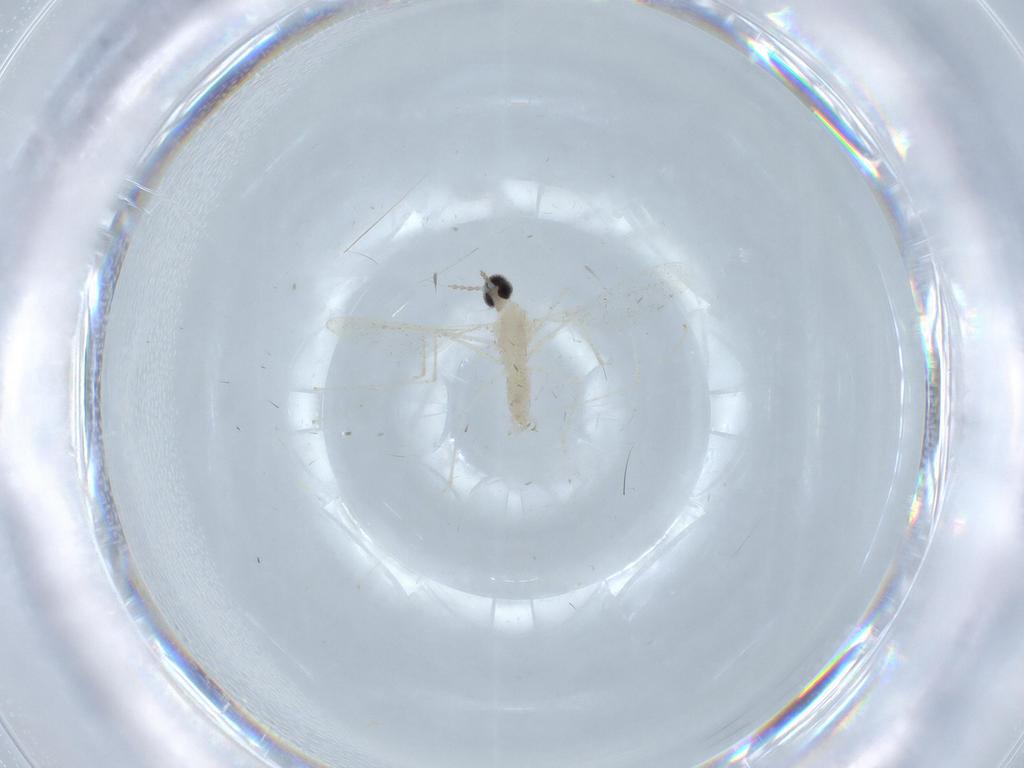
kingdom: Animalia
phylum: Arthropoda
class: Insecta
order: Diptera
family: Cecidomyiidae
